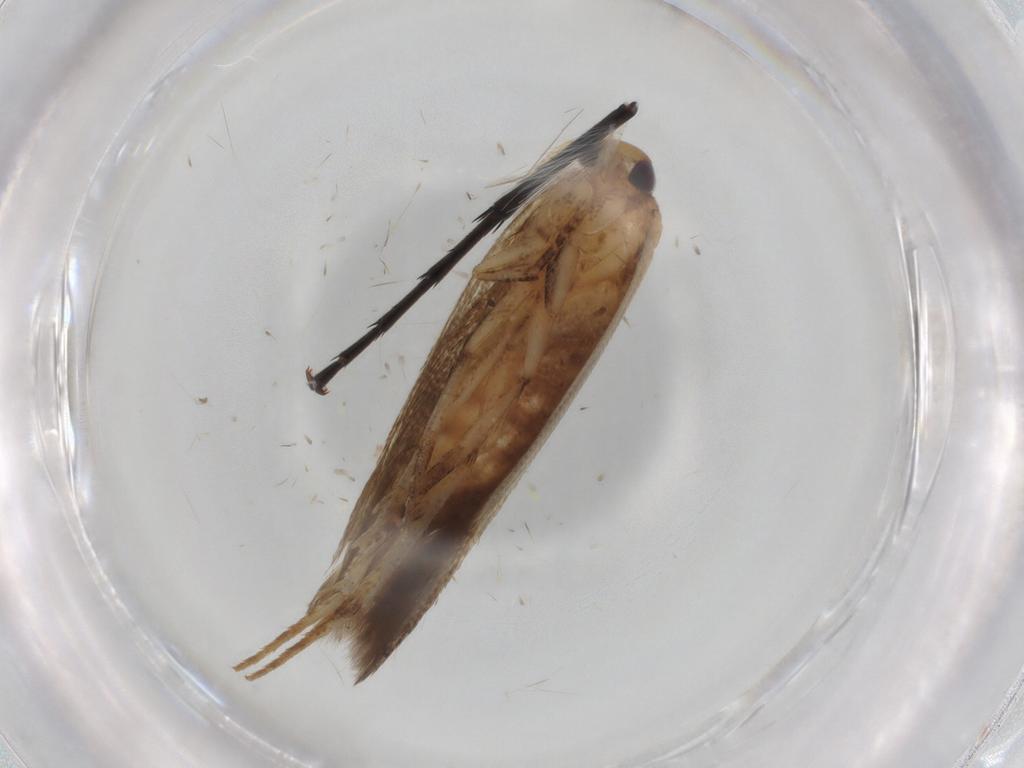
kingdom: Animalia
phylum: Arthropoda
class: Insecta
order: Lepidoptera
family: Cosmopterigidae
